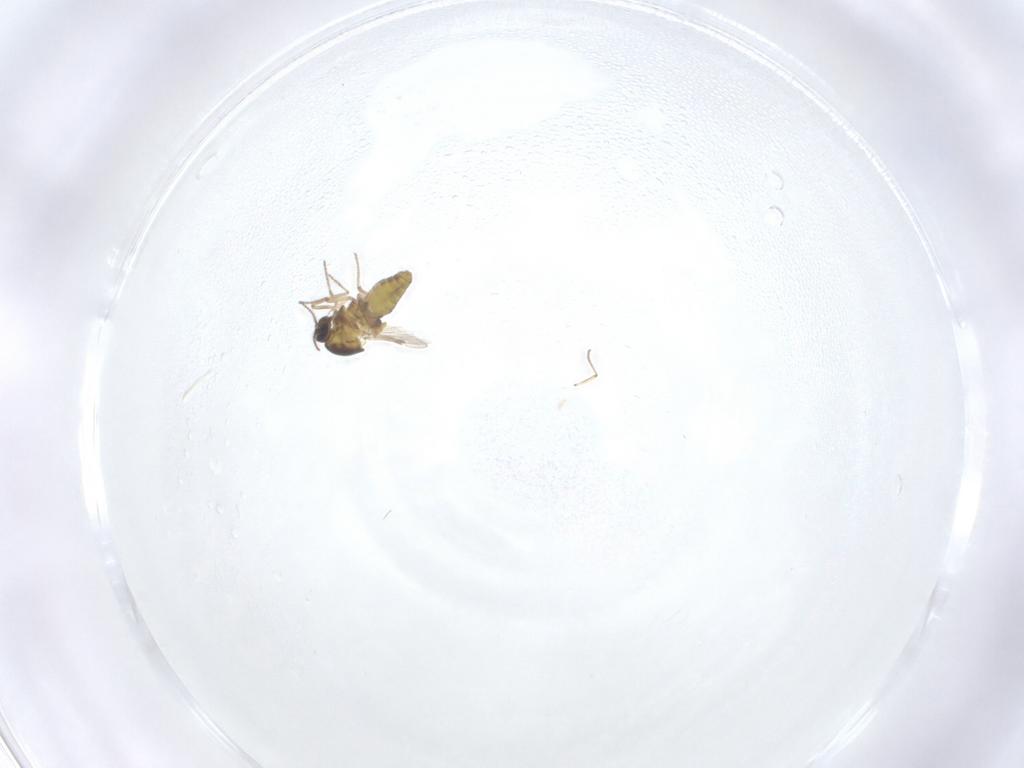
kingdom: Animalia
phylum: Arthropoda
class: Insecta
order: Diptera
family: Ceratopogonidae
